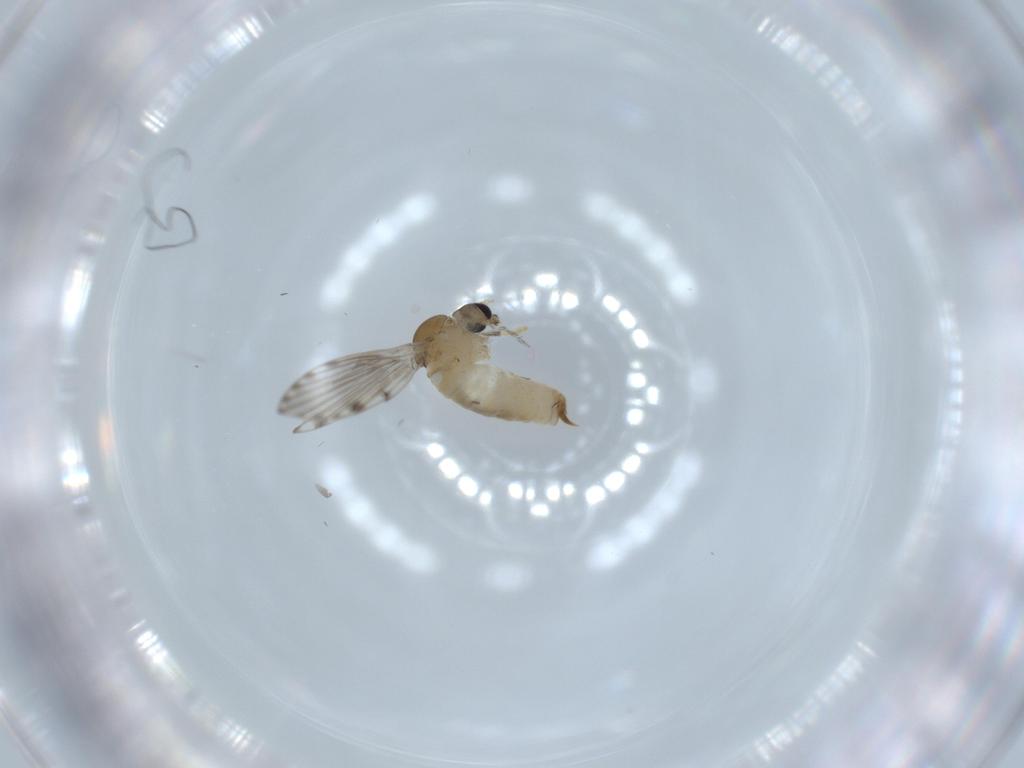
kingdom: Animalia
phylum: Arthropoda
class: Insecta
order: Diptera
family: Psychodidae
